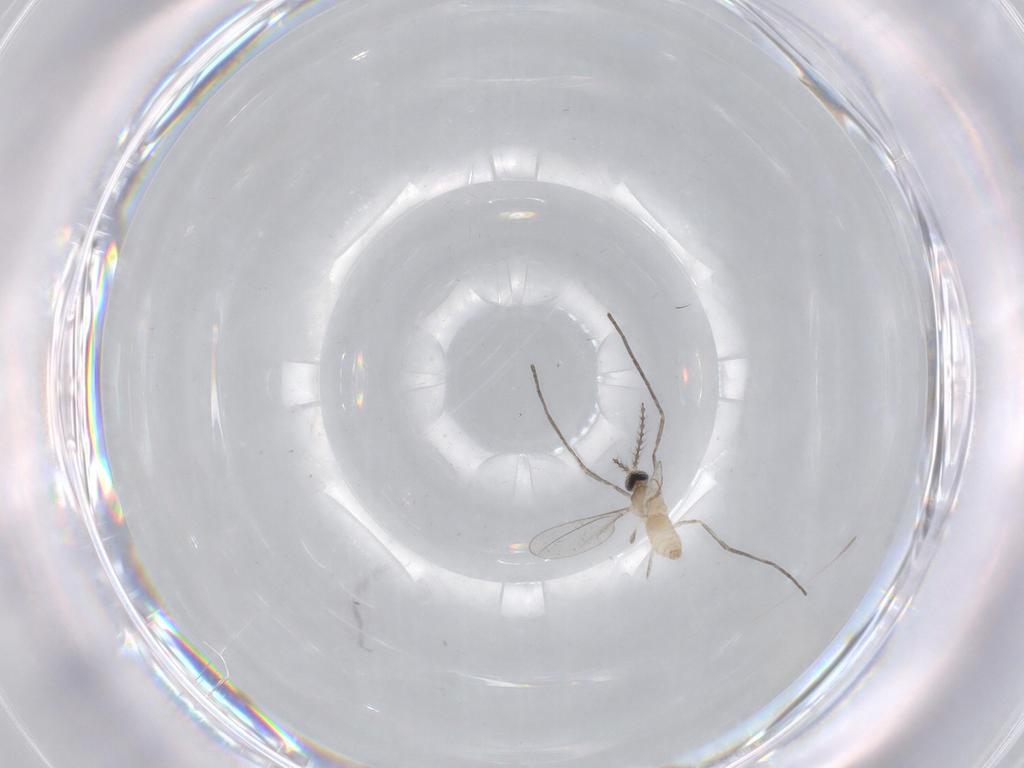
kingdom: Animalia
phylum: Arthropoda
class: Insecta
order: Diptera
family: Cecidomyiidae
